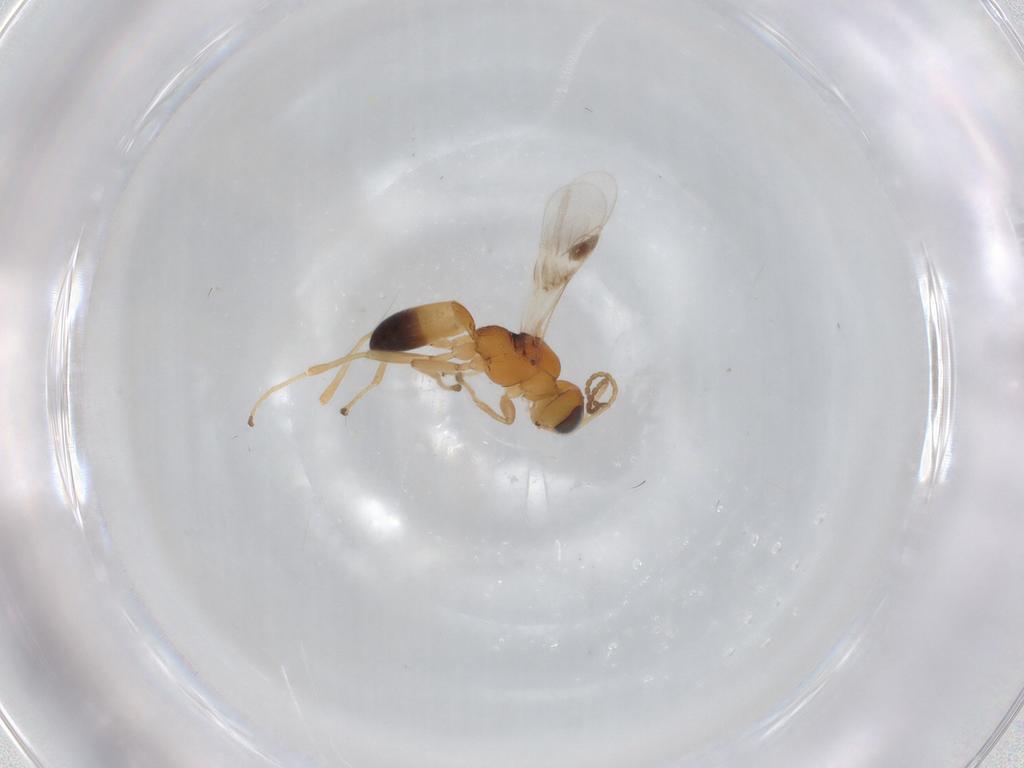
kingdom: Animalia
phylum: Arthropoda
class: Insecta
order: Hymenoptera
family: Braconidae
